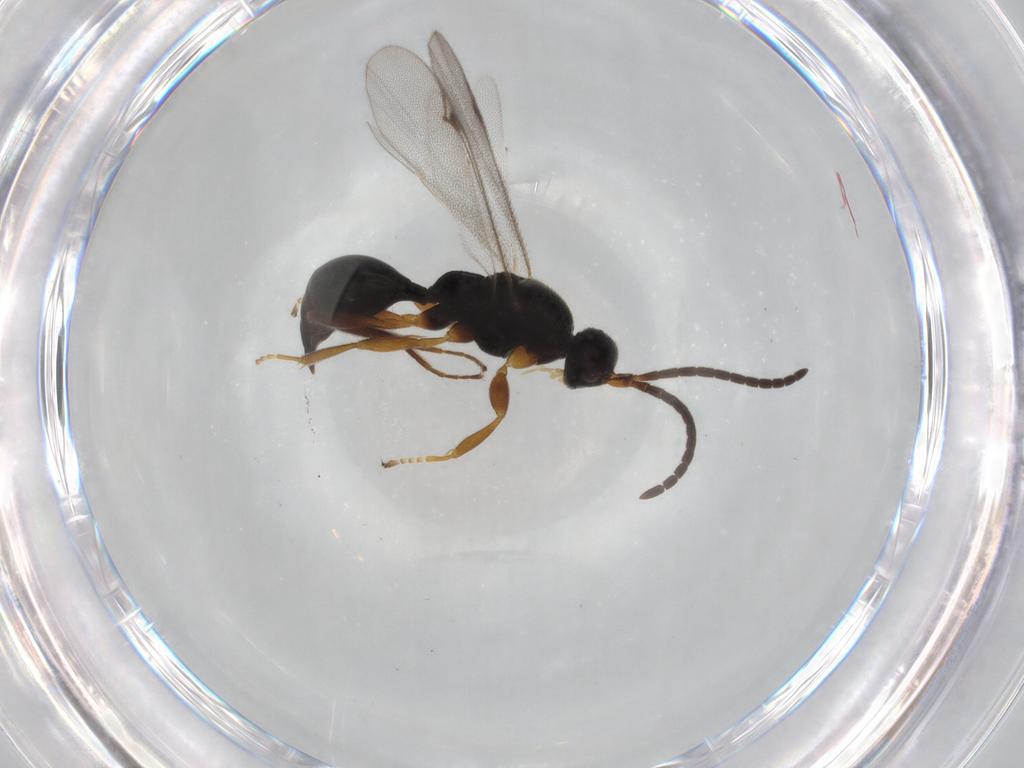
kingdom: Animalia
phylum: Arthropoda
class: Insecta
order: Hymenoptera
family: Proctotrupidae
